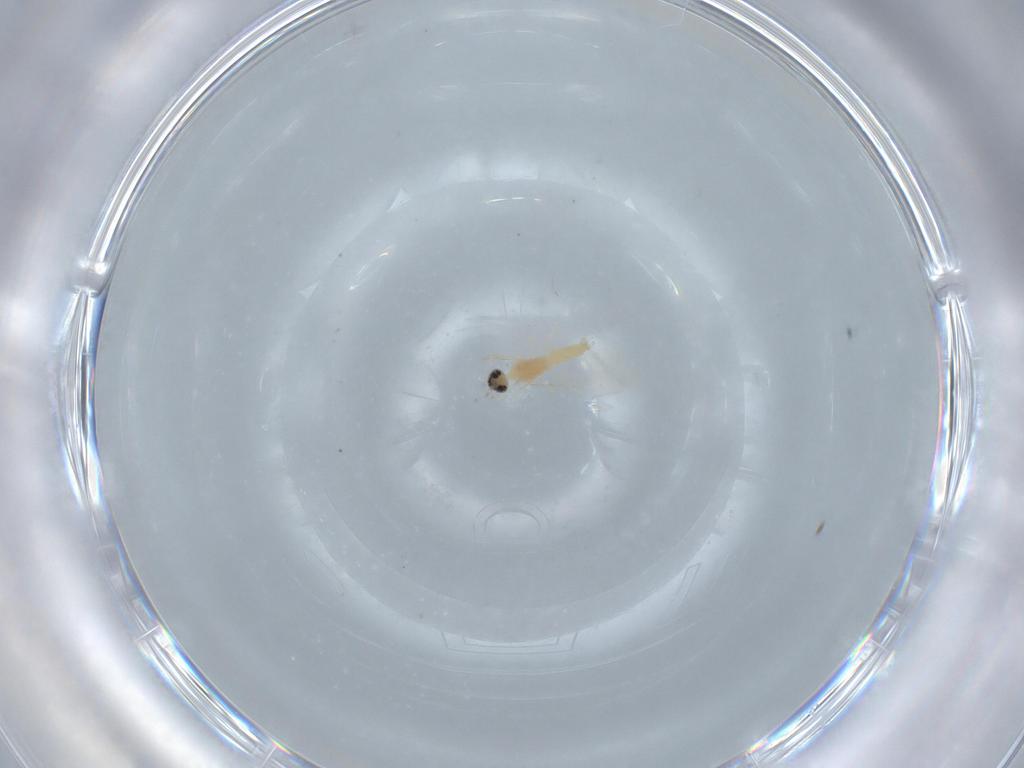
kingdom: Animalia
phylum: Arthropoda
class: Insecta
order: Diptera
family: Cecidomyiidae
